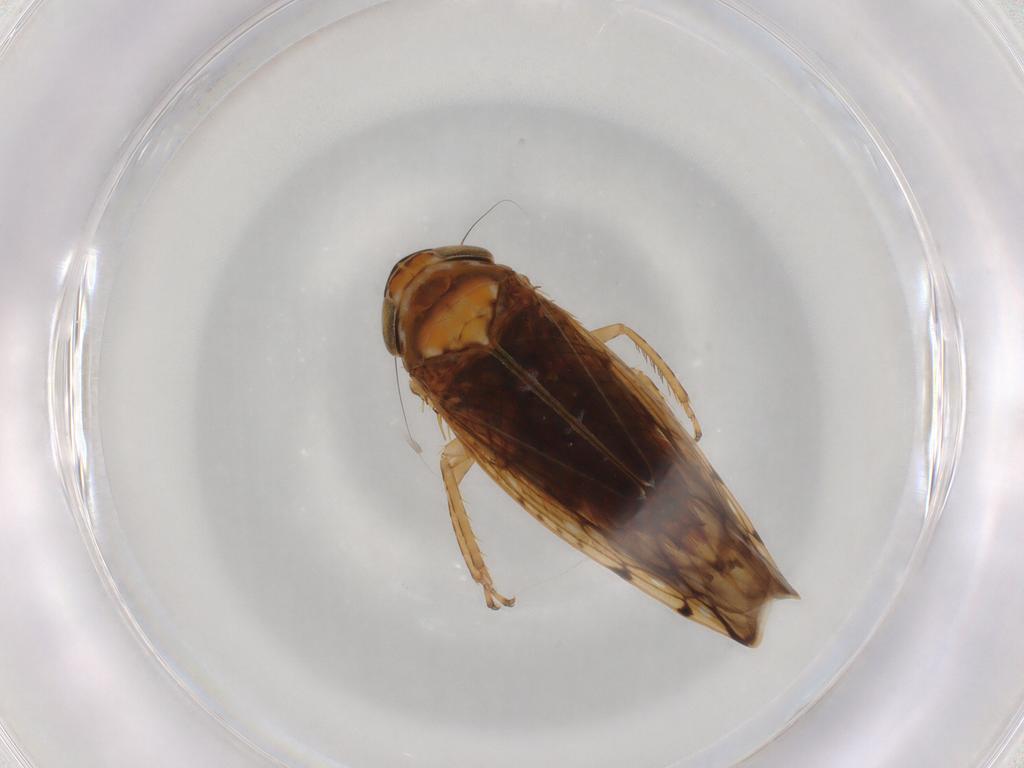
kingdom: Animalia
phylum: Arthropoda
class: Insecta
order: Hemiptera
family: Cicadellidae
